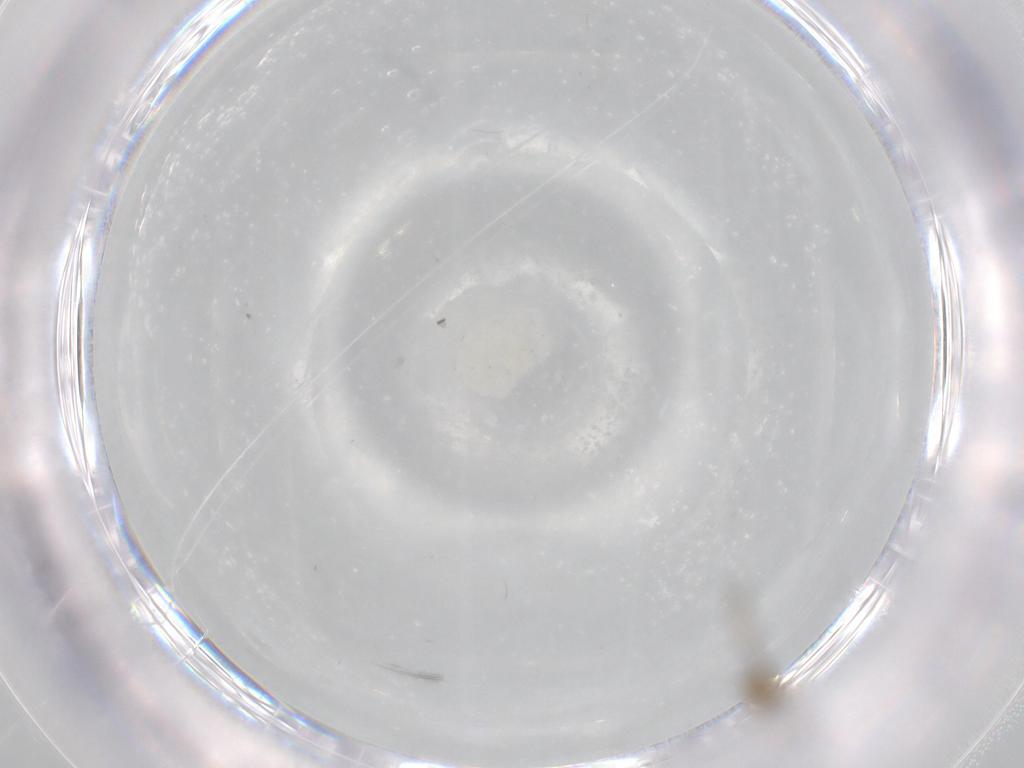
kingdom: Animalia
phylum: Arthropoda
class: Insecta
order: Diptera
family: Cecidomyiidae
